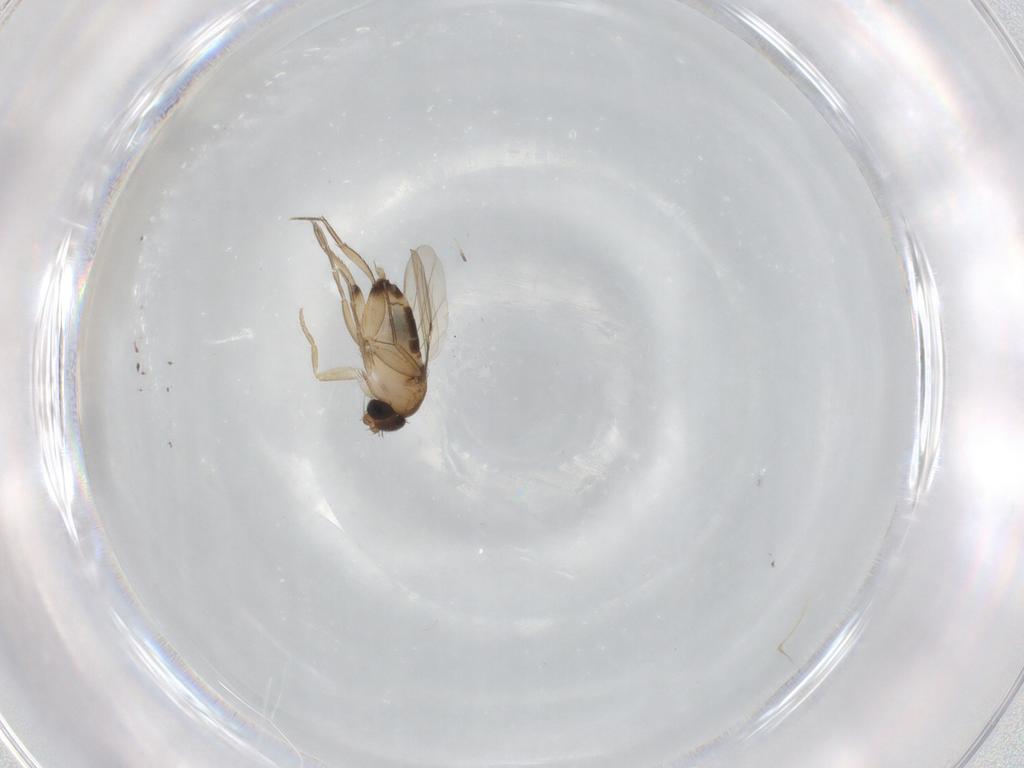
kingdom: Animalia
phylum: Arthropoda
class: Insecta
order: Diptera
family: Phoridae
